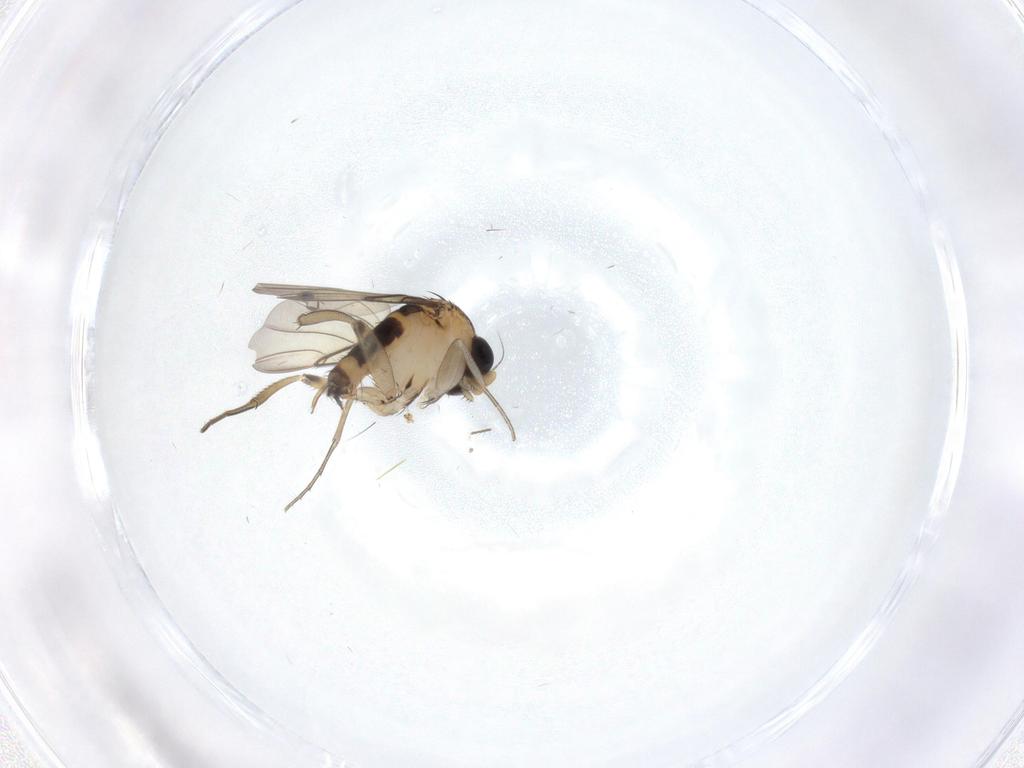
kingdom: Animalia
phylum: Arthropoda
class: Insecta
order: Diptera
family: Phoridae
